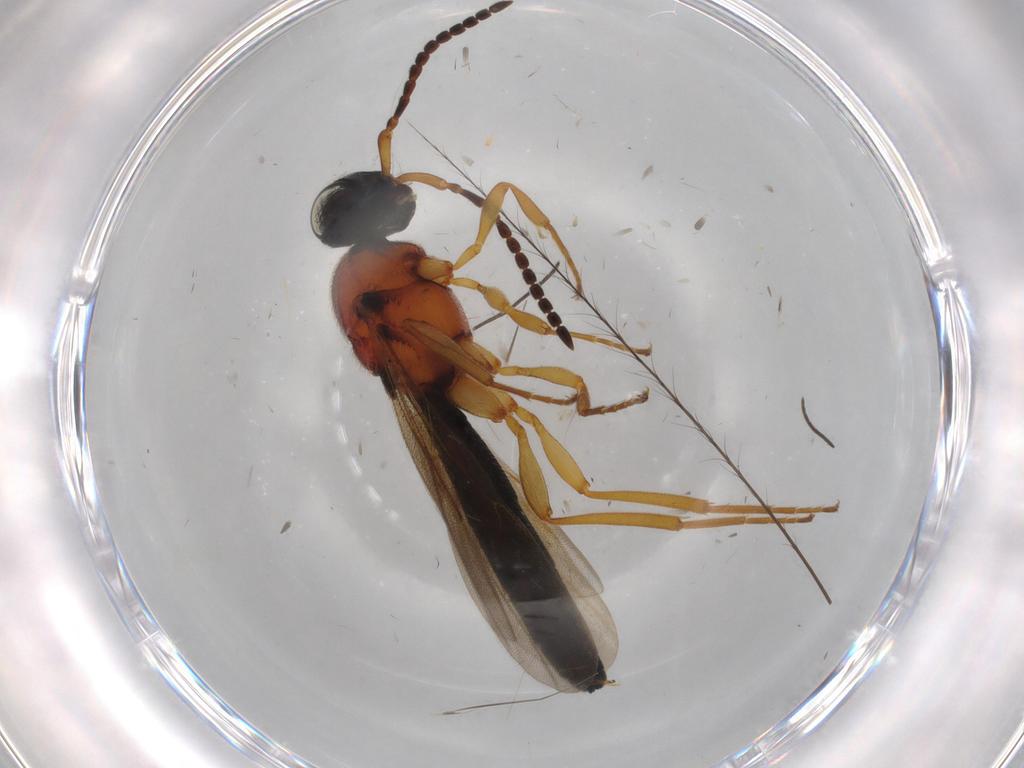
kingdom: Animalia
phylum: Arthropoda
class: Insecta
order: Hymenoptera
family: Scelionidae
